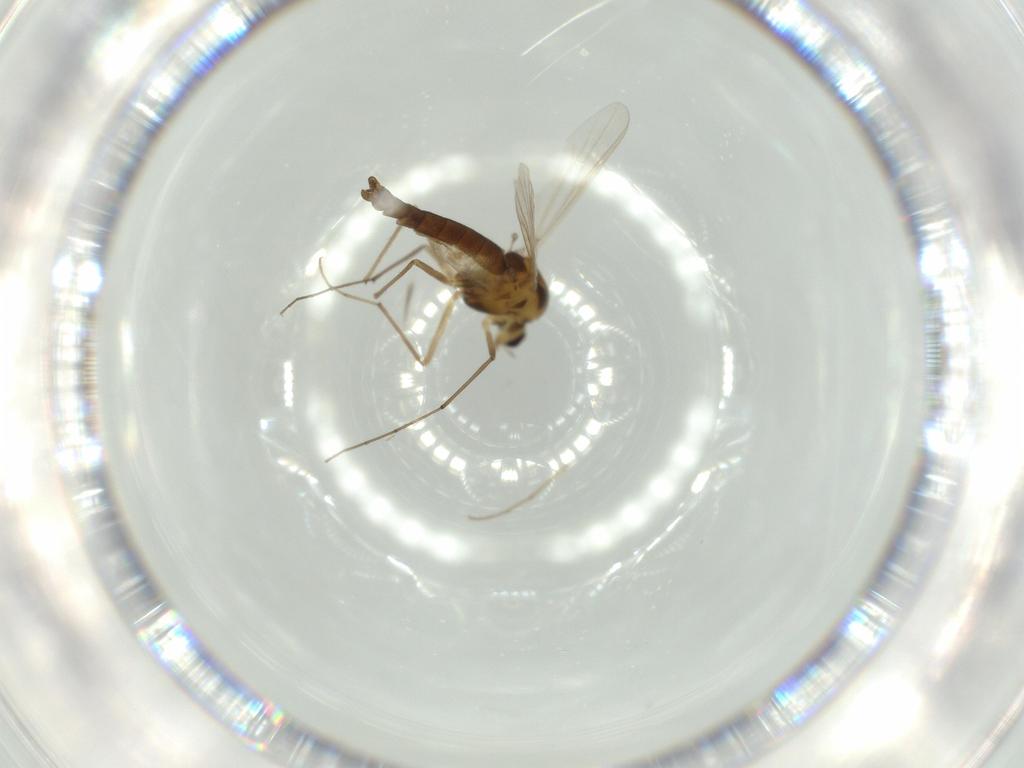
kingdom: Animalia
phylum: Arthropoda
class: Insecta
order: Diptera
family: Chironomidae
